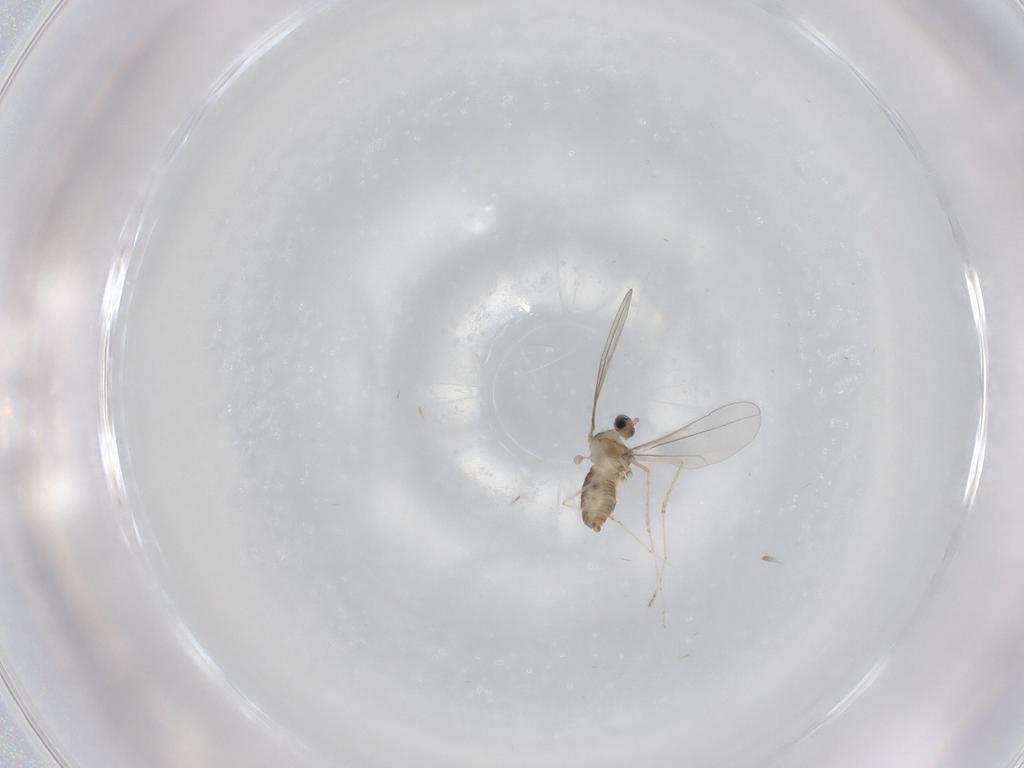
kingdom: Animalia
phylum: Arthropoda
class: Insecta
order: Diptera
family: Cecidomyiidae
